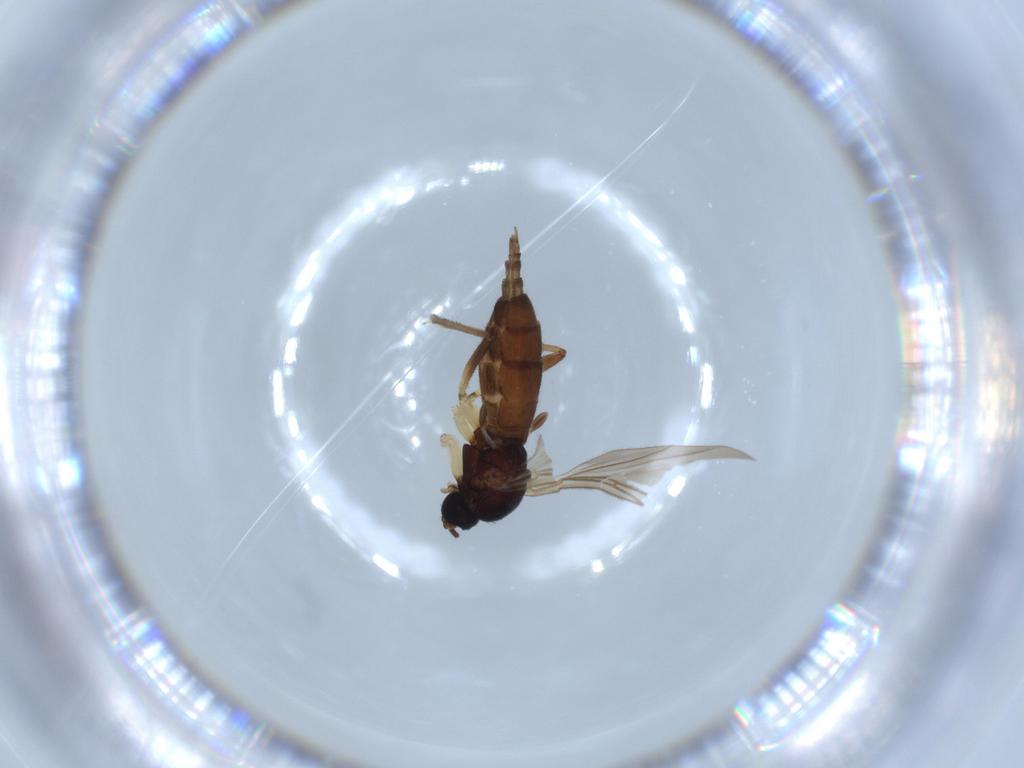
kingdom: Animalia
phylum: Arthropoda
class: Insecta
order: Diptera
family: Sciaridae
